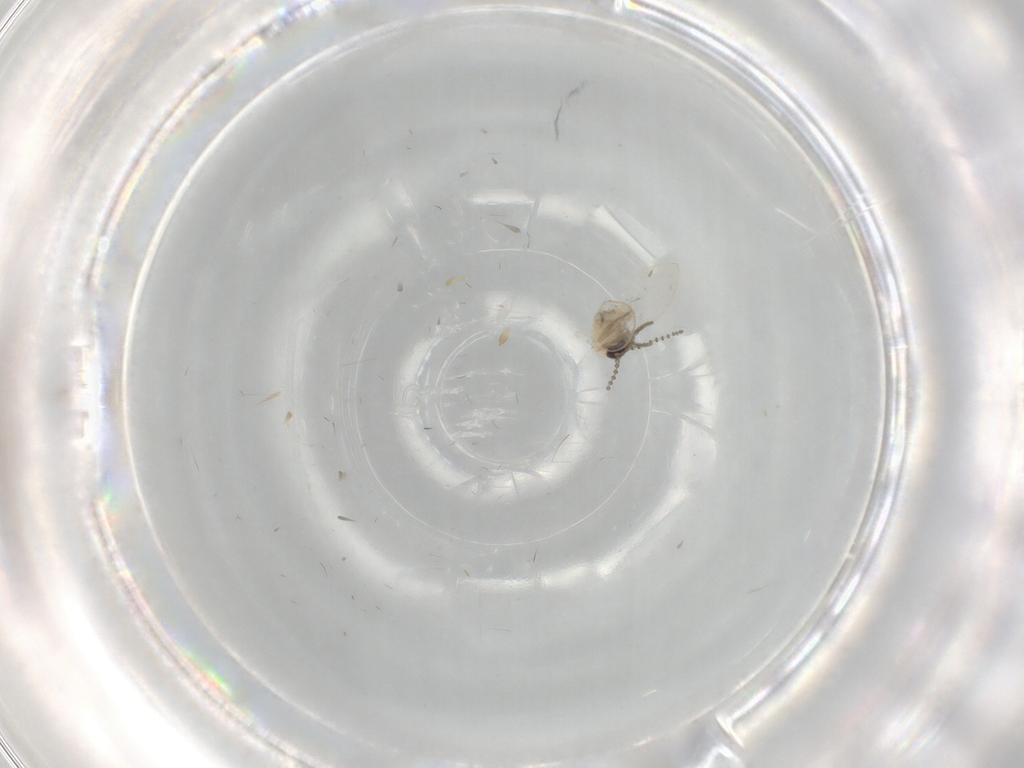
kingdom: Animalia
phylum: Arthropoda
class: Insecta
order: Diptera
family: Psychodidae
